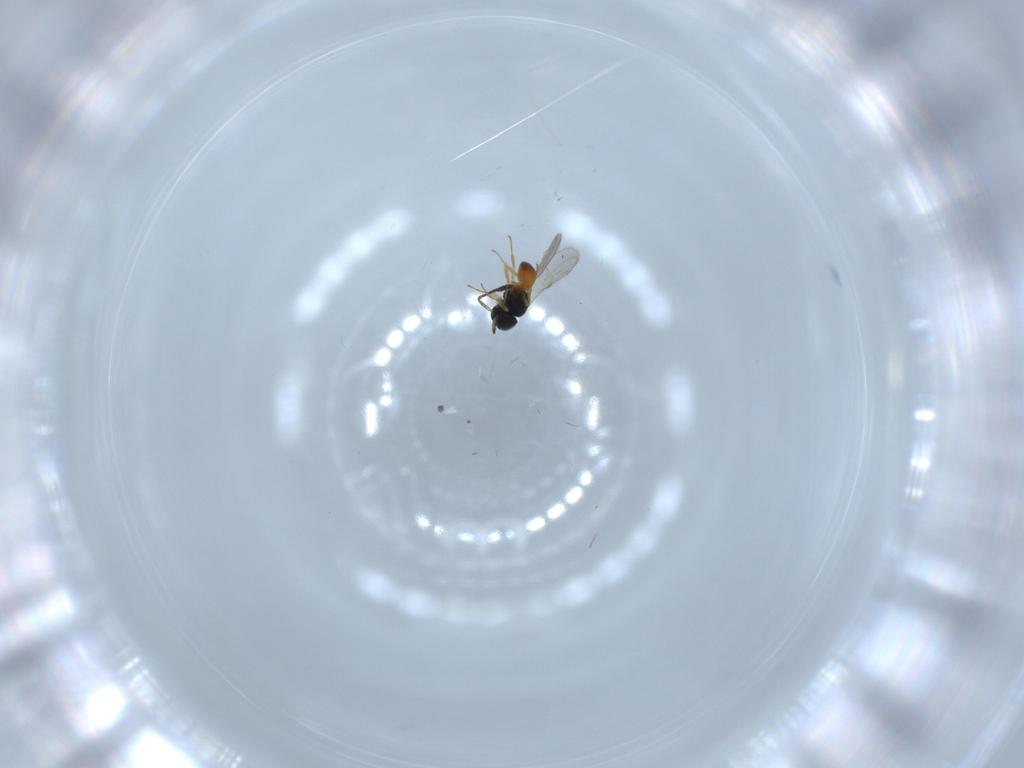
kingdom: Animalia
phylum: Arthropoda
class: Insecta
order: Hymenoptera
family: Scelionidae
